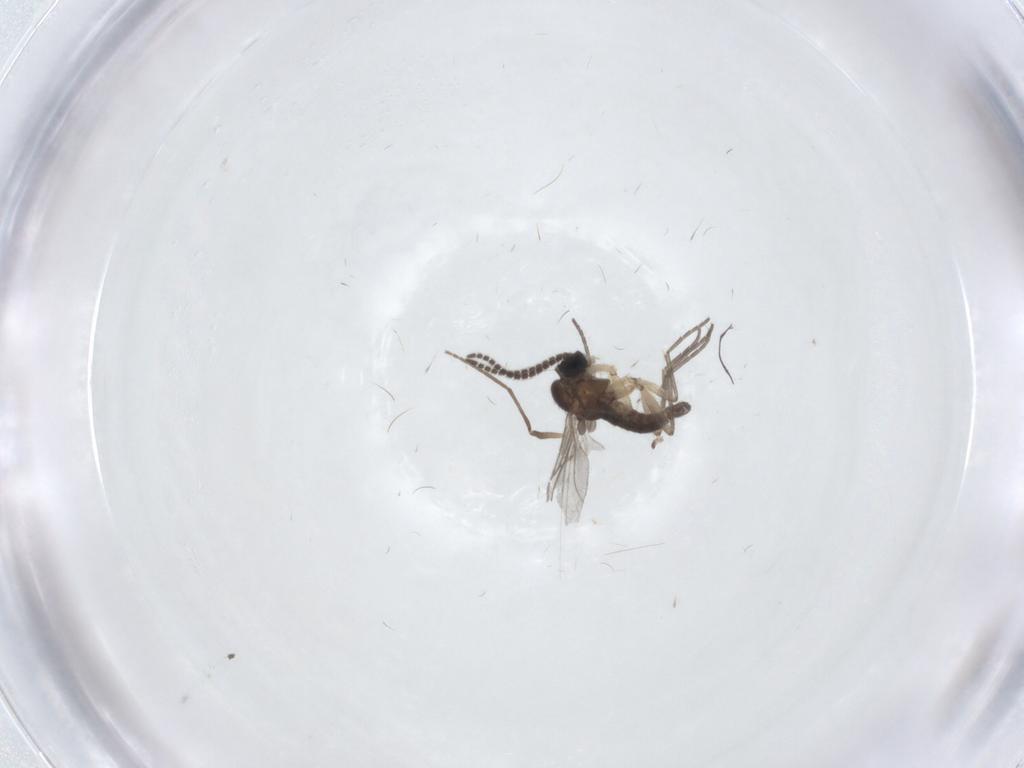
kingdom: Animalia
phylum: Arthropoda
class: Insecta
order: Diptera
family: Sciaridae
